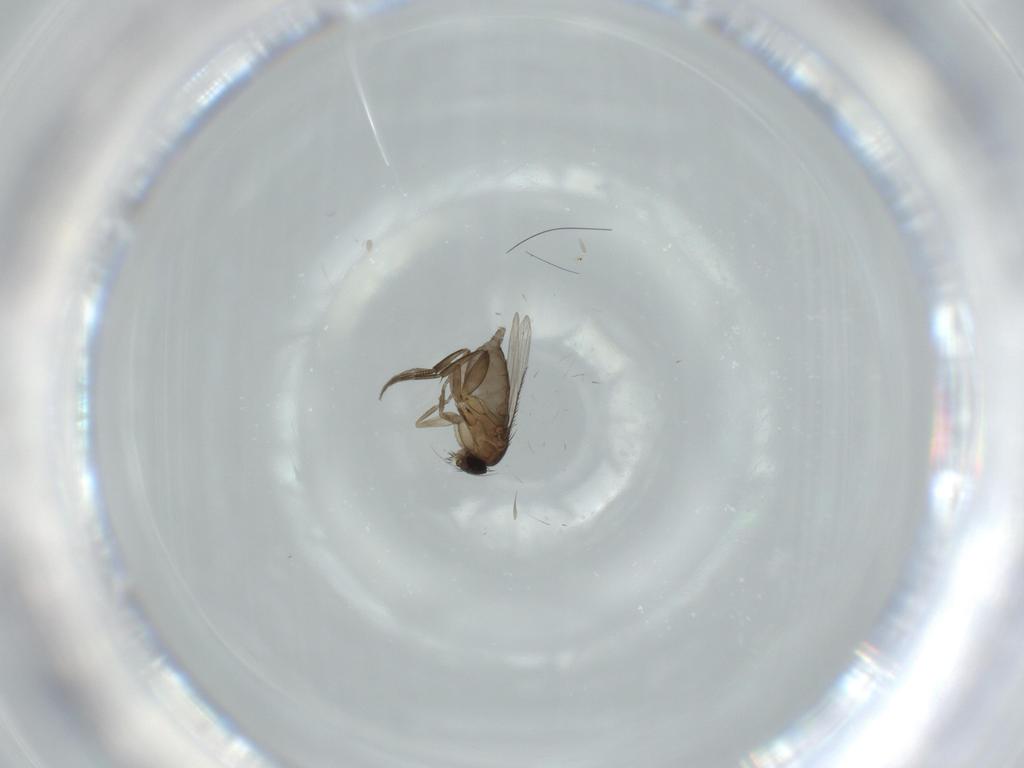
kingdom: Animalia
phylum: Arthropoda
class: Insecta
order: Diptera
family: Phoridae
